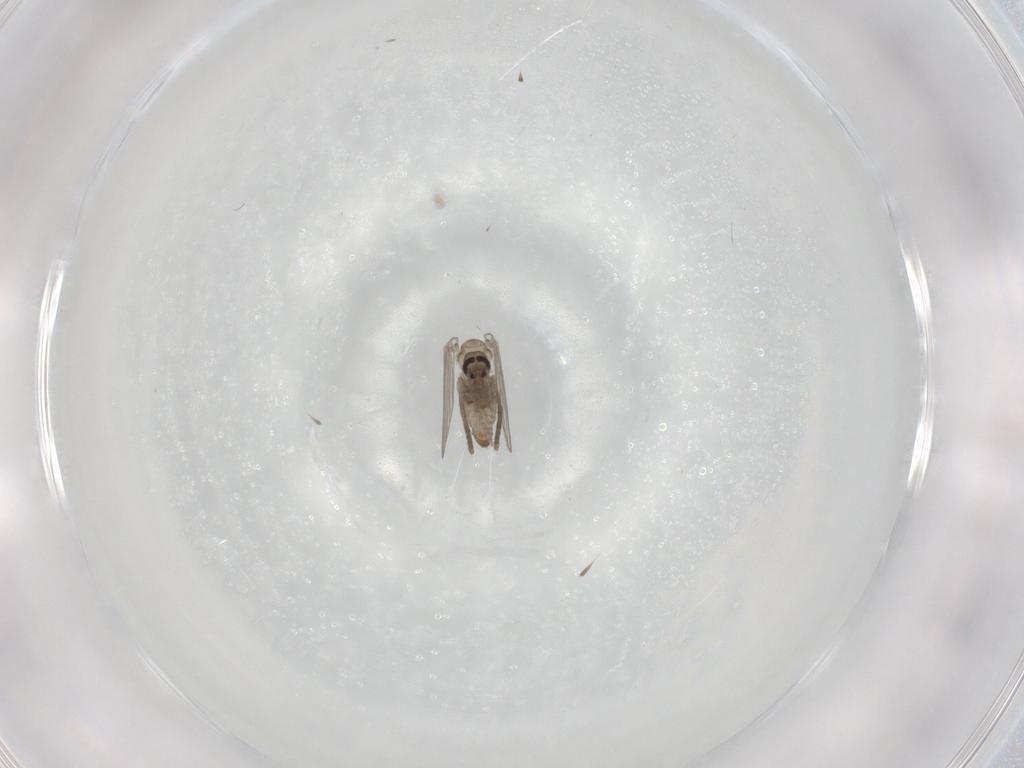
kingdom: Animalia
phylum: Arthropoda
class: Insecta
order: Diptera
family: Psychodidae
